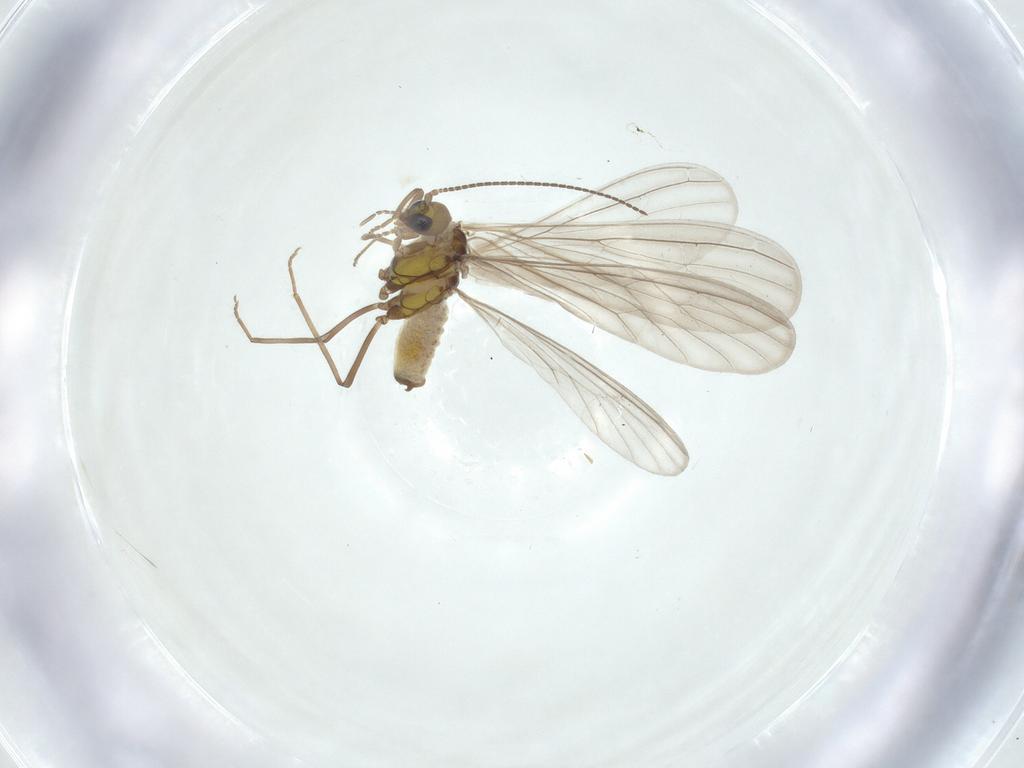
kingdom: Animalia
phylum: Arthropoda
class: Insecta
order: Neuroptera
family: Coniopterygidae
